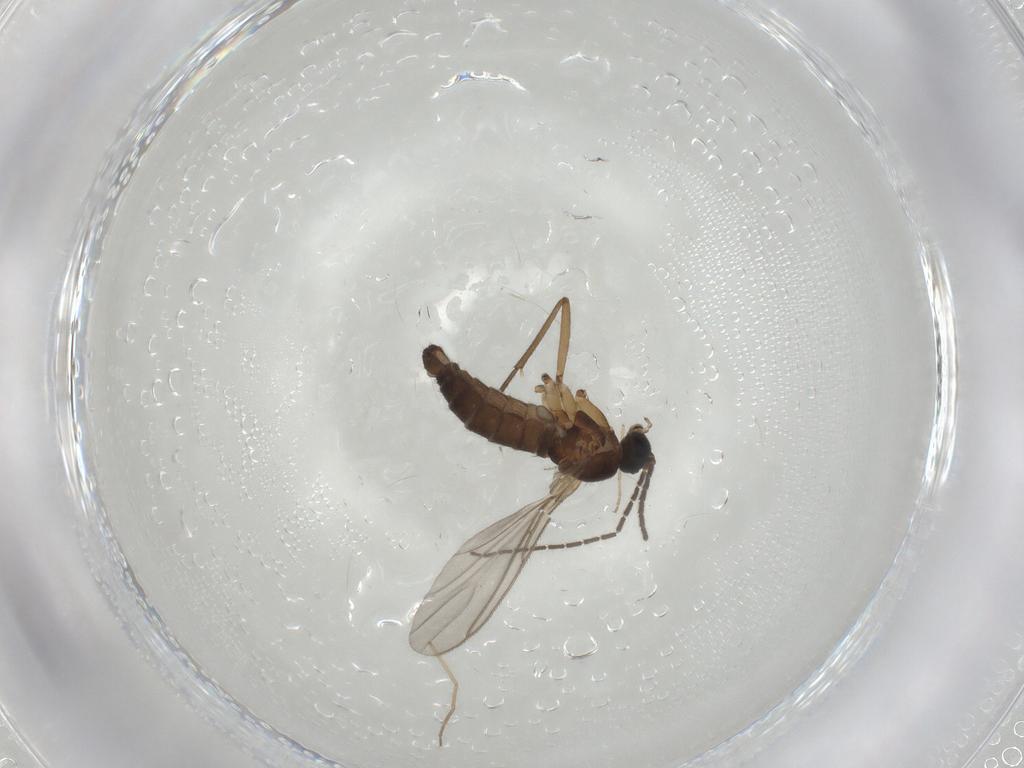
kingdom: Animalia
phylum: Arthropoda
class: Insecta
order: Diptera
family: Sciaridae
